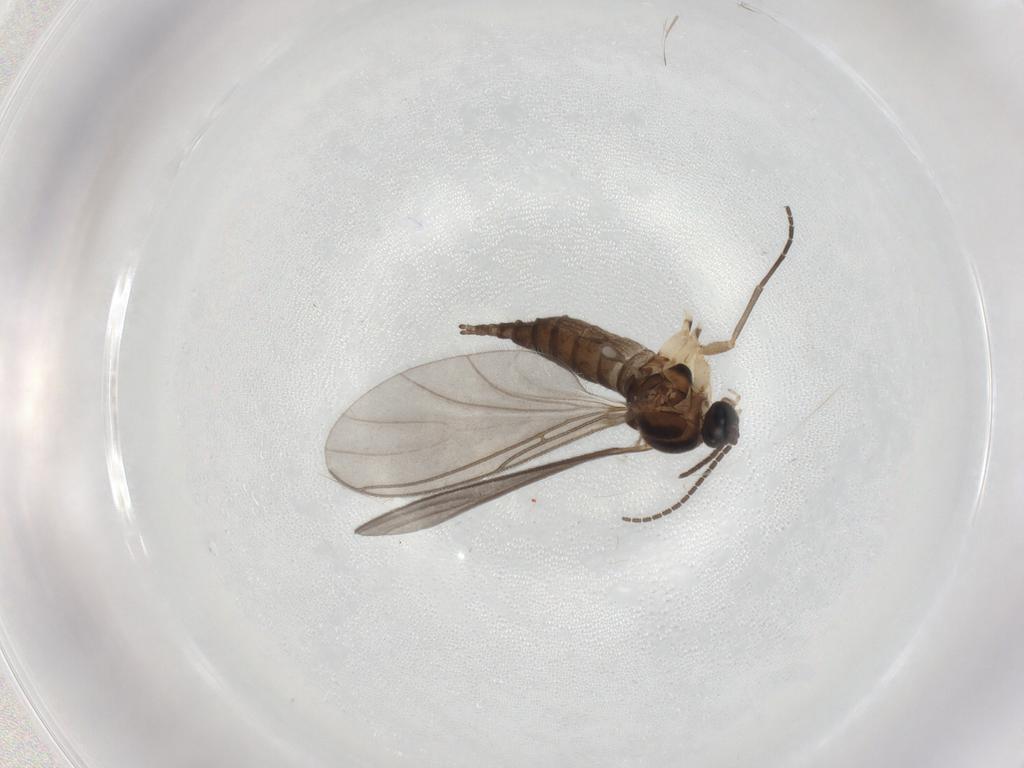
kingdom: Animalia
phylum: Arthropoda
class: Insecta
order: Diptera
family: Sciaridae
